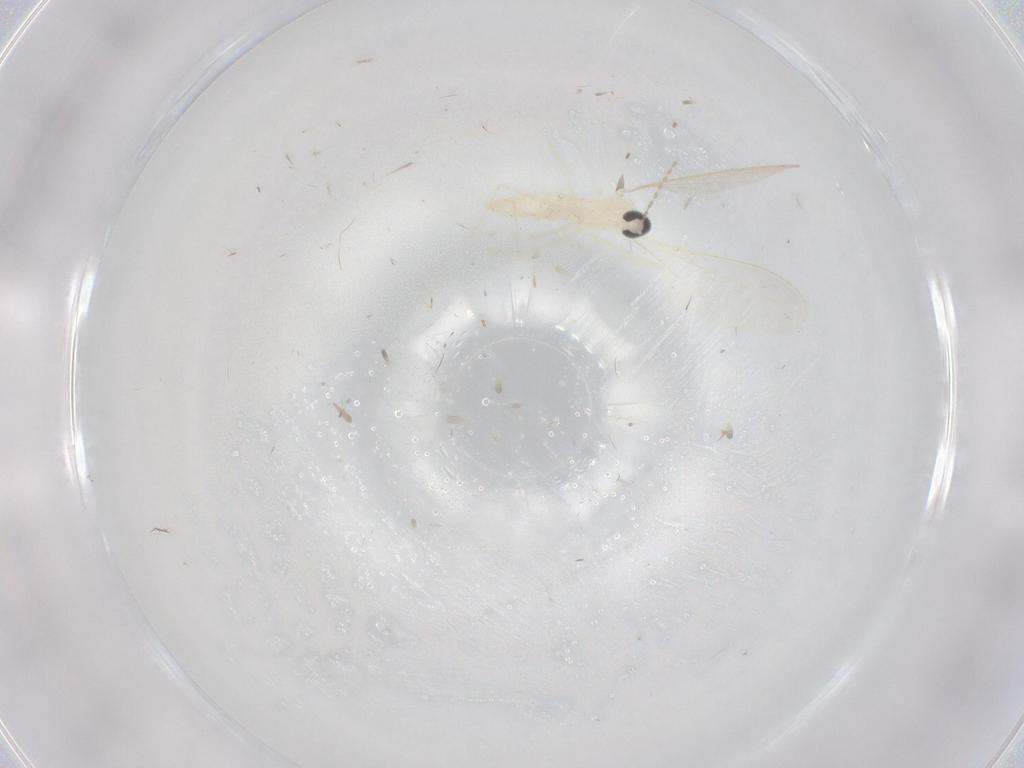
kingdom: Animalia
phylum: Arthropoda
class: Insecta
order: Diptera
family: Cecidomyiidae
